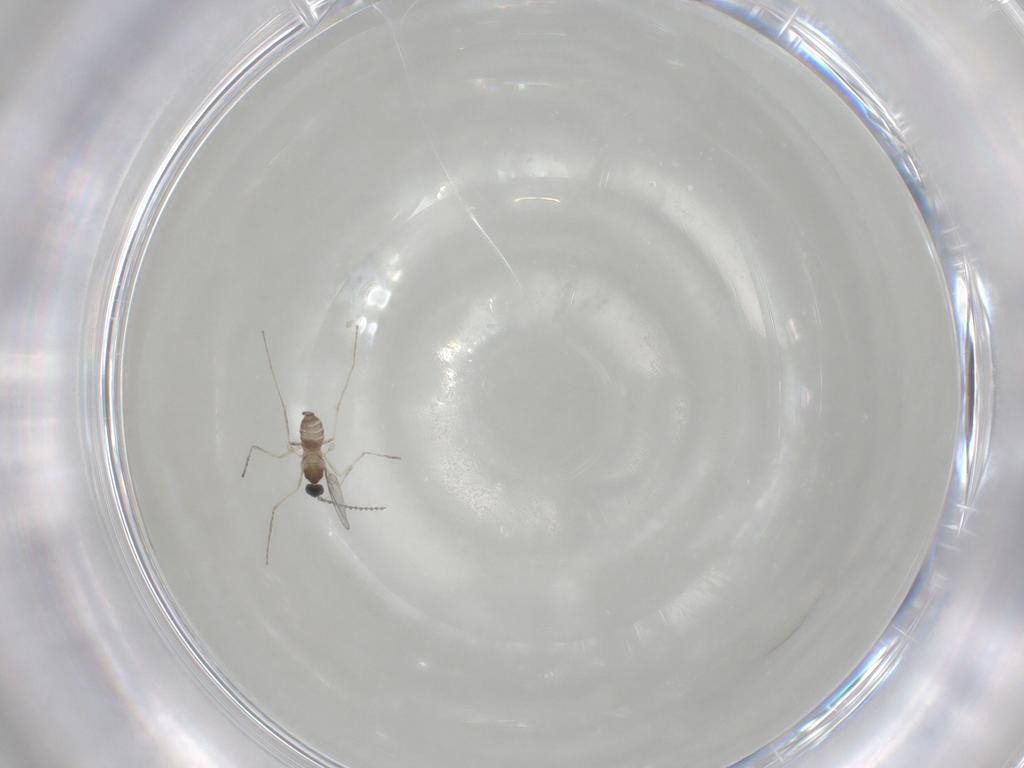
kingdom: Animalia
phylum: Arthropoda
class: Insecta
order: Diptera
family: Cecidomyiidae
